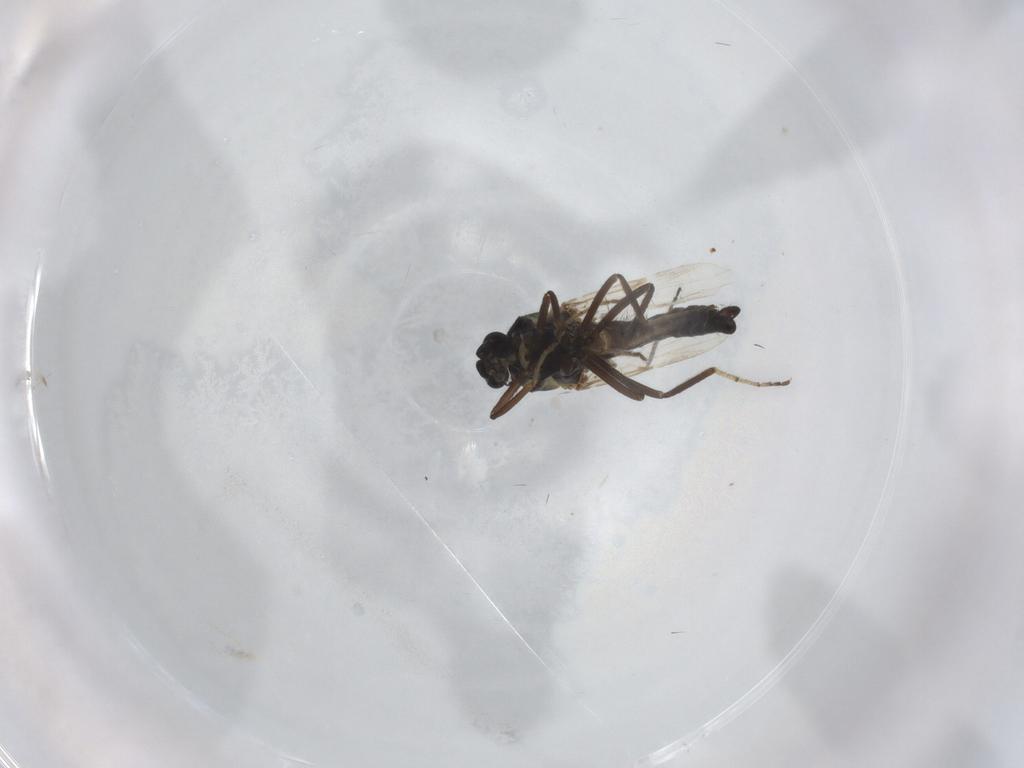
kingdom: Animalia
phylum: Arthropoda
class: Insecta
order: Diptera
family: Ceratopogonidae
